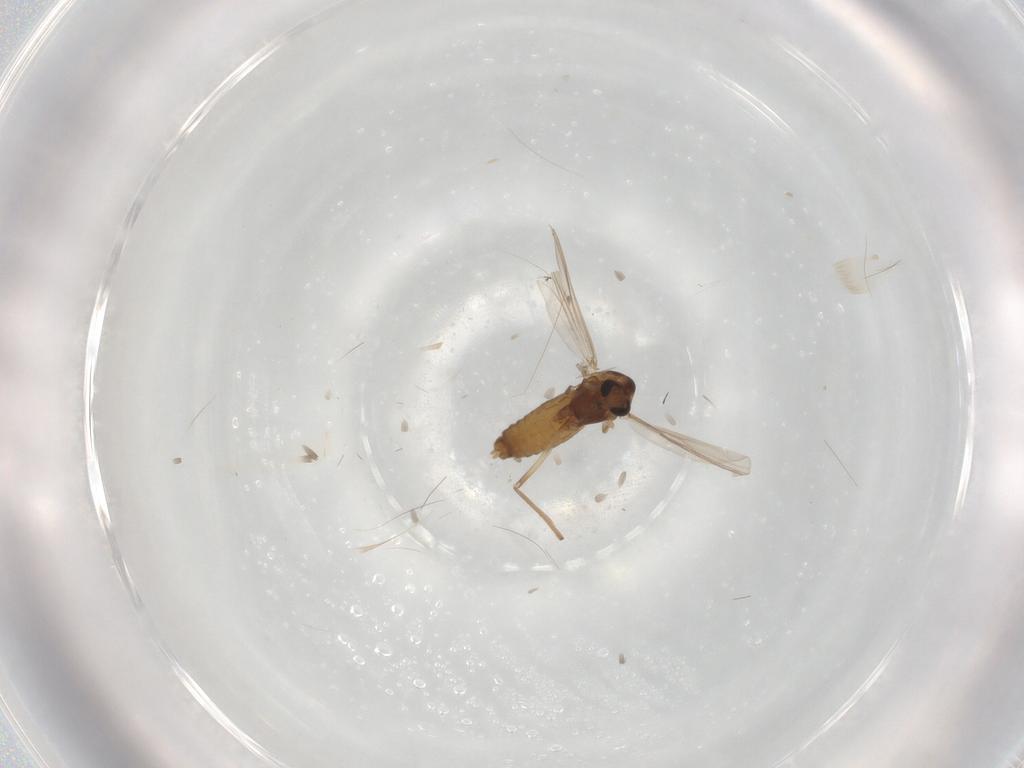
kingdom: Animalia
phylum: Arthropoda
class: Insecta
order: Diptera
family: Chironomidae
